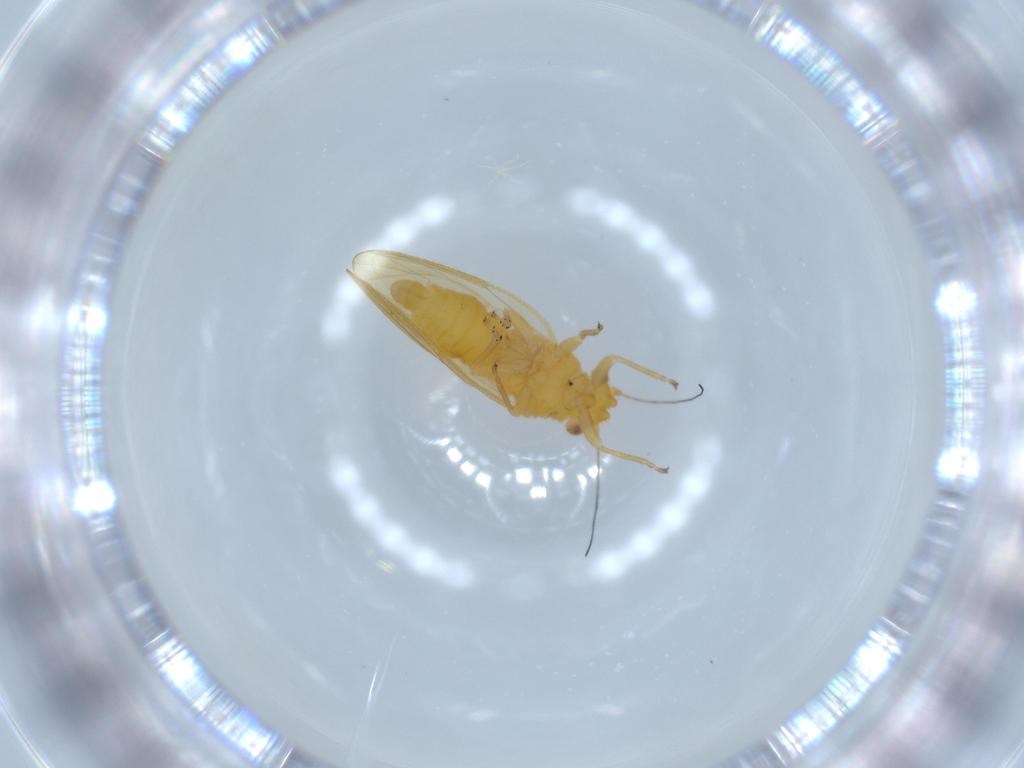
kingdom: Animalia
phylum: Arthropoda
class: Insecta
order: Hemiptera
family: Psyllidae
